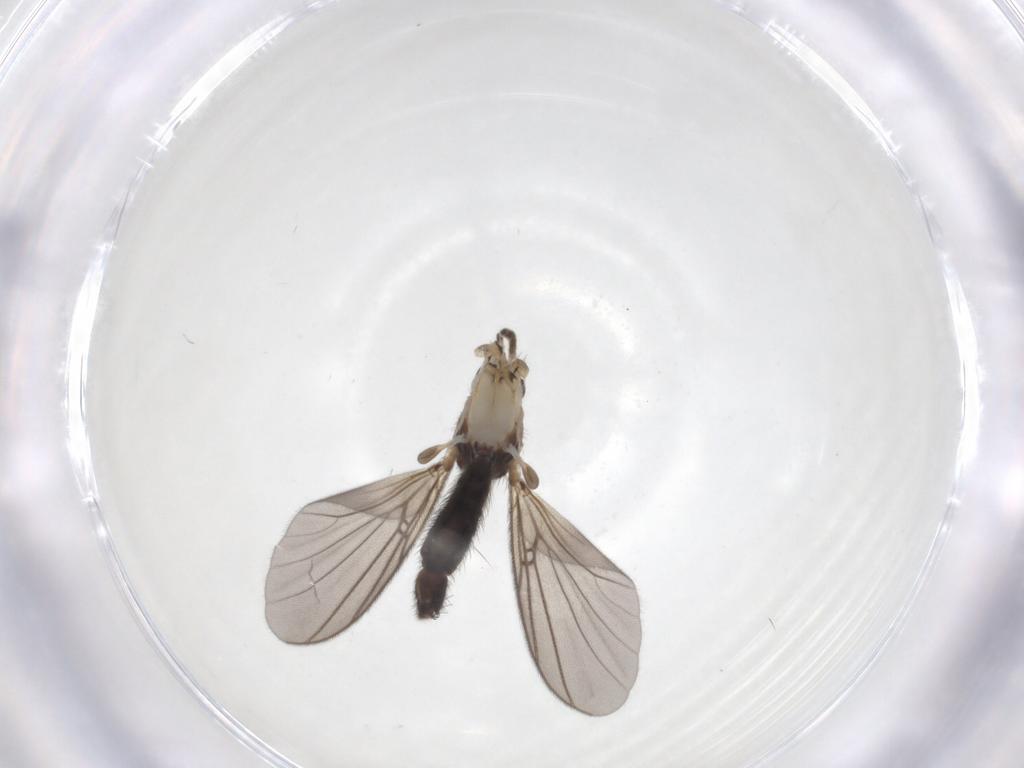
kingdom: Animalia
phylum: Arthropoda
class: Insecta
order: Diptera
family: Mycetophilidae
